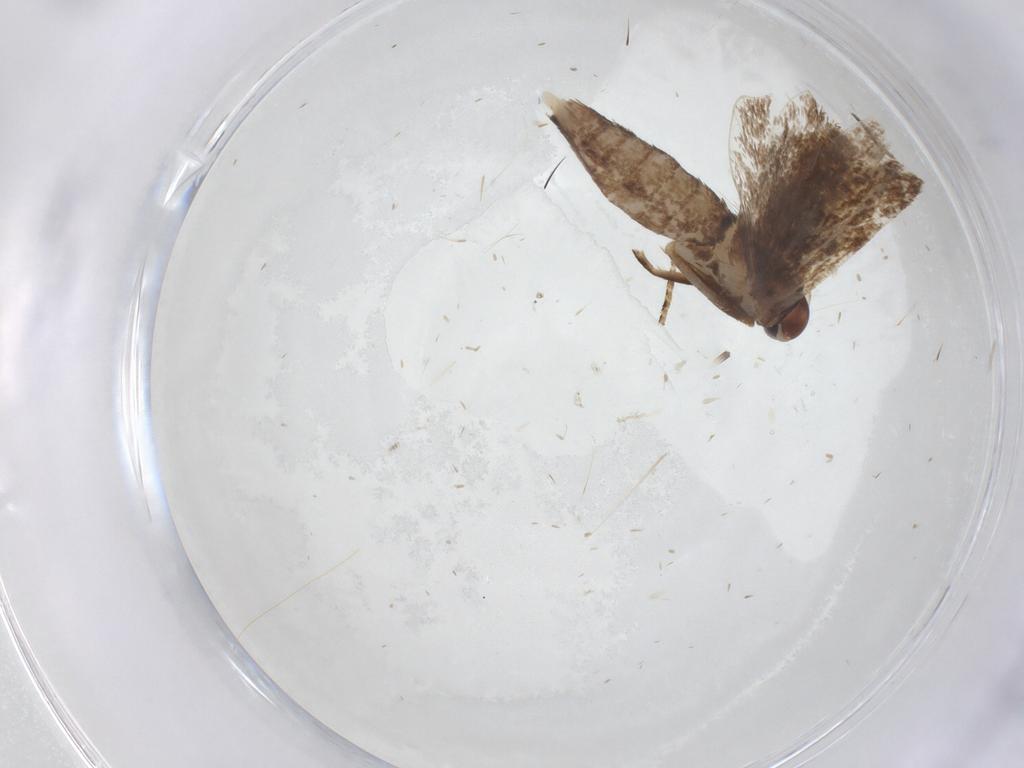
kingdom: Animalia
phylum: Arthropoda
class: Insecta
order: Lepidoptera
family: Gelechiidae
